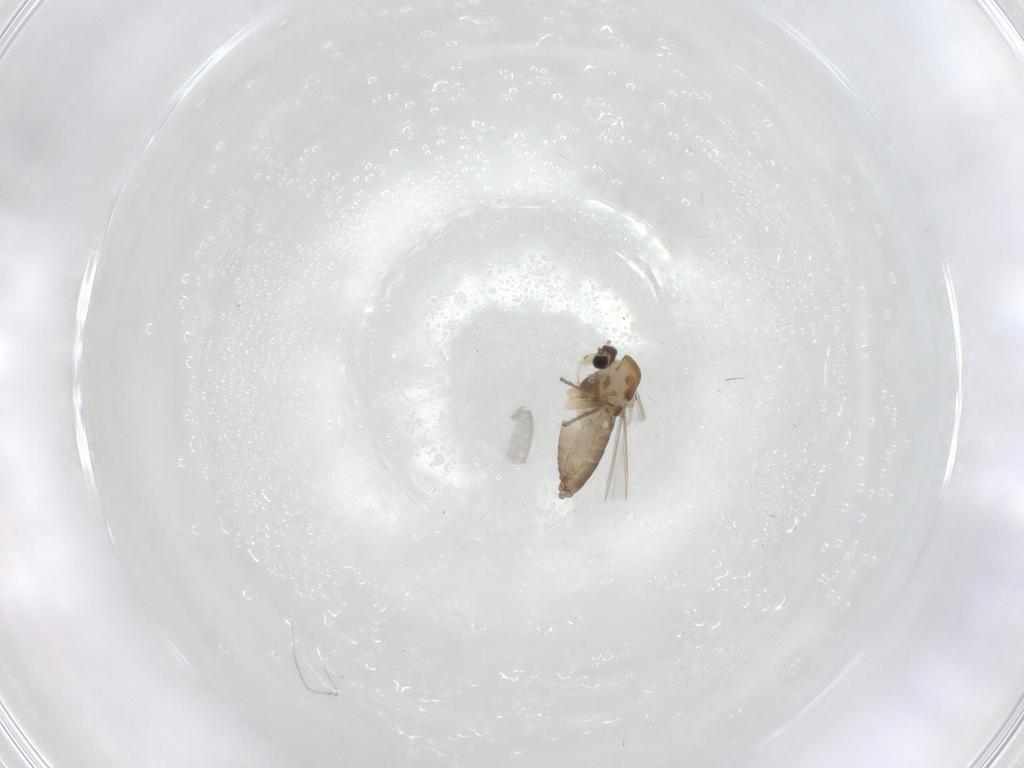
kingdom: Animalia
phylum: Arthropoda
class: Insecta
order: Diptera
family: Chironomidae
